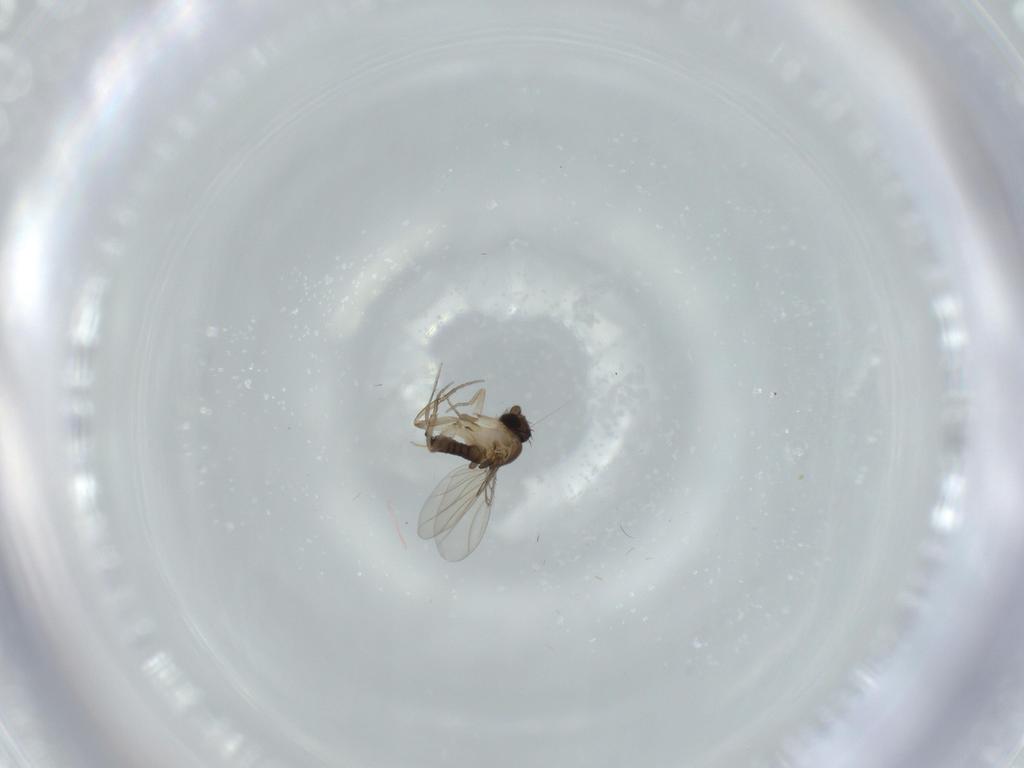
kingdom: Animalia
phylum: Arthropoda
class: Insecta
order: Diptera
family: Phoridae
